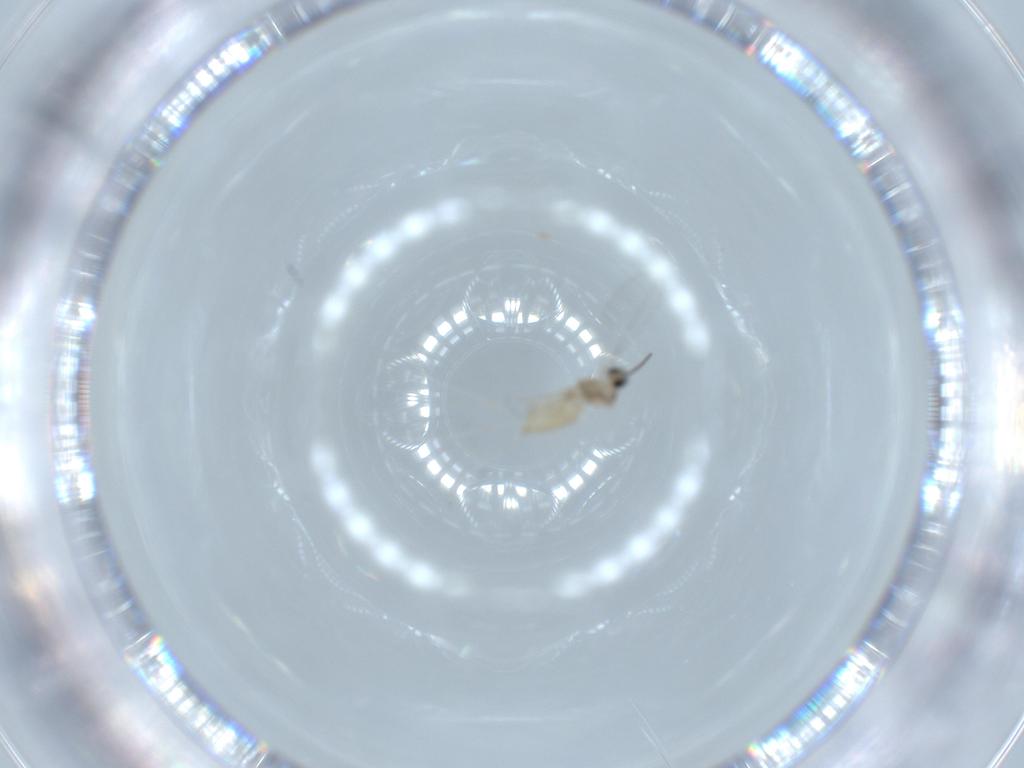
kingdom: Animalia
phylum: Arthropoda
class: Insecta
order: Diptera
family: Cecidomyiidae
